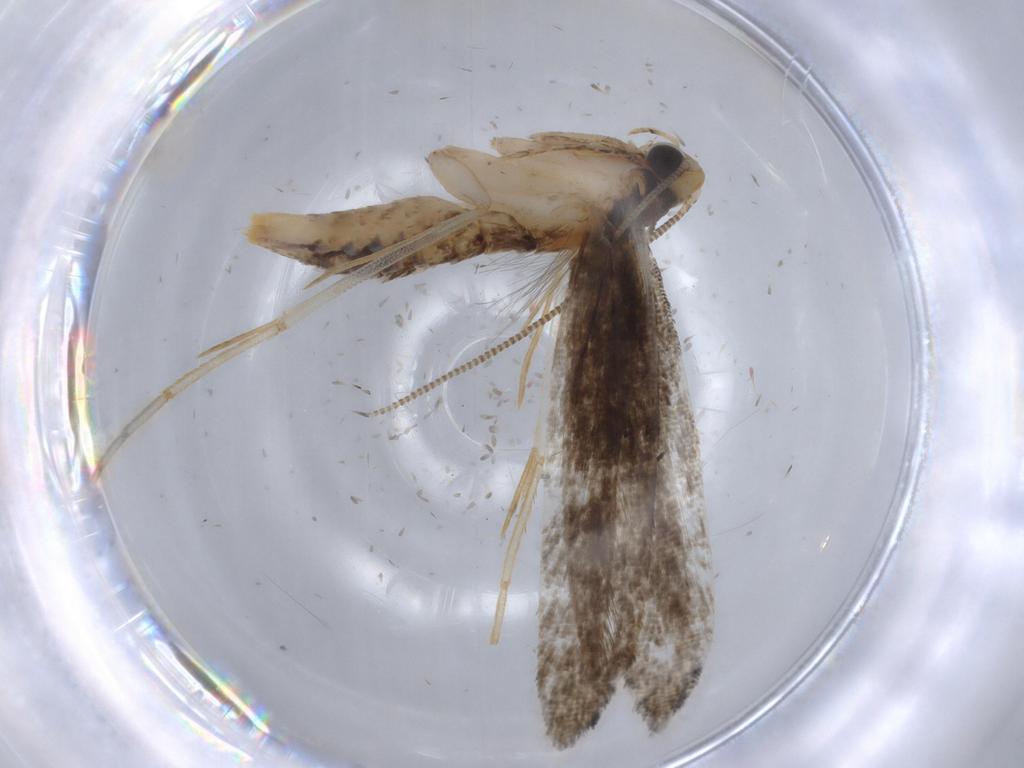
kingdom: Animalia
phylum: Arthropoda
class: Insecta
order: Lepidoptera
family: Tineidae
